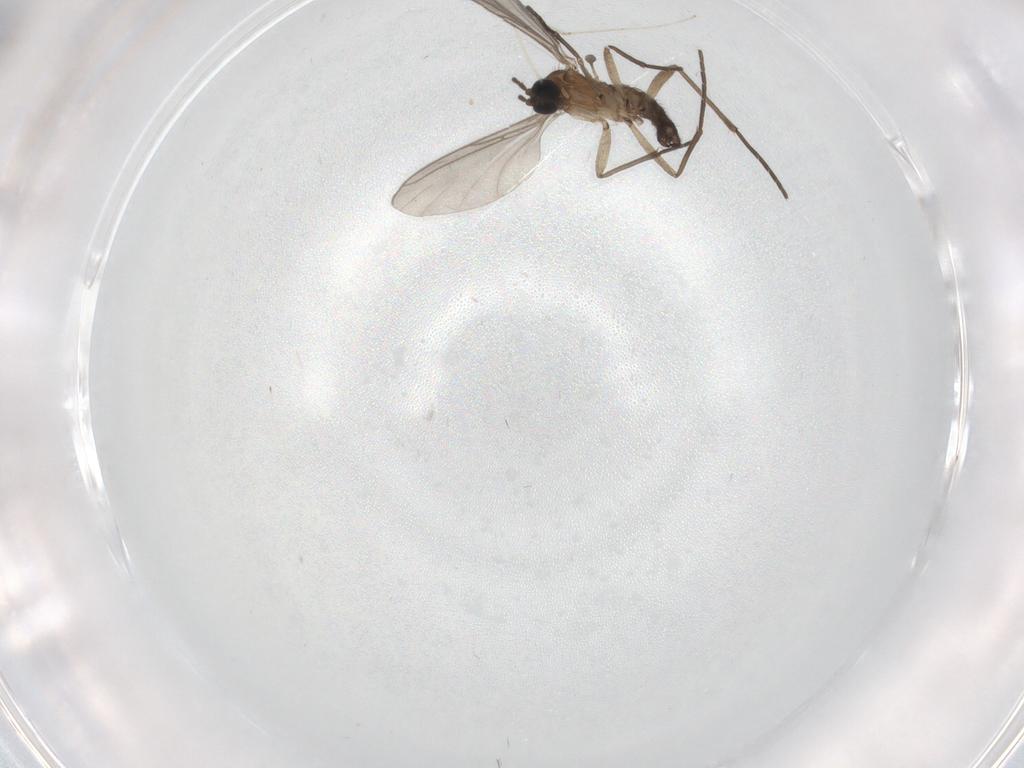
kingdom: Animalia
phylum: Arthropoda
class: Insecta
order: Diptera
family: Cecidomyiidae
